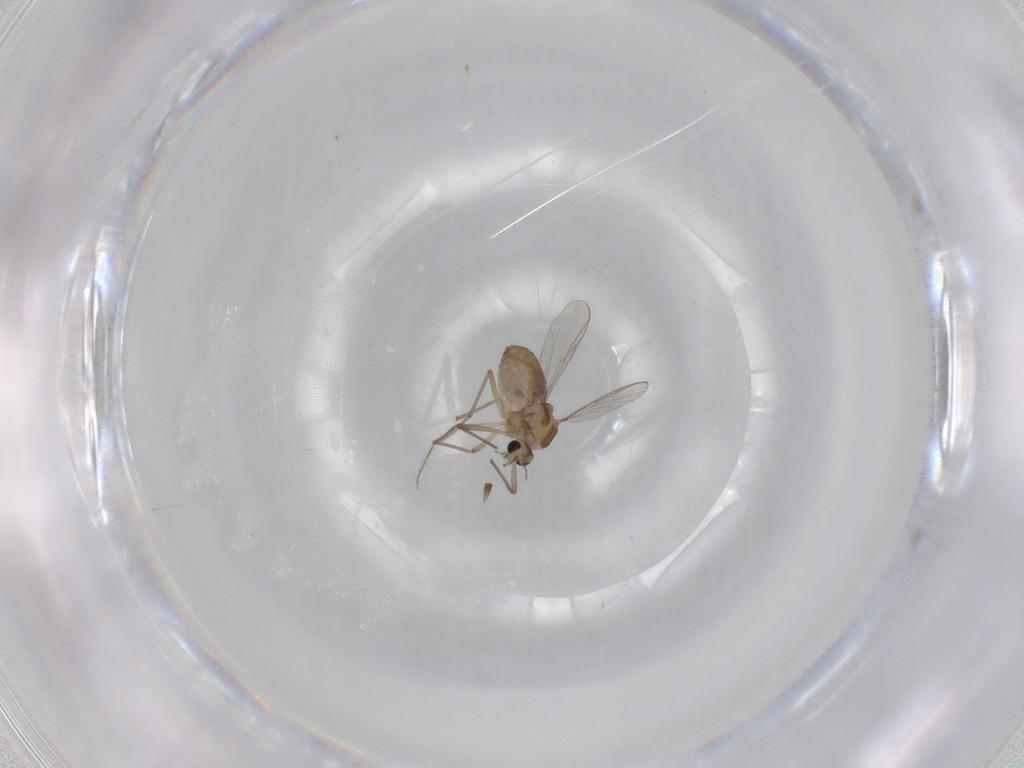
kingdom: Animalia
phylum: Arthropoda
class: Insecta
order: Diptera
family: Chironomidae
